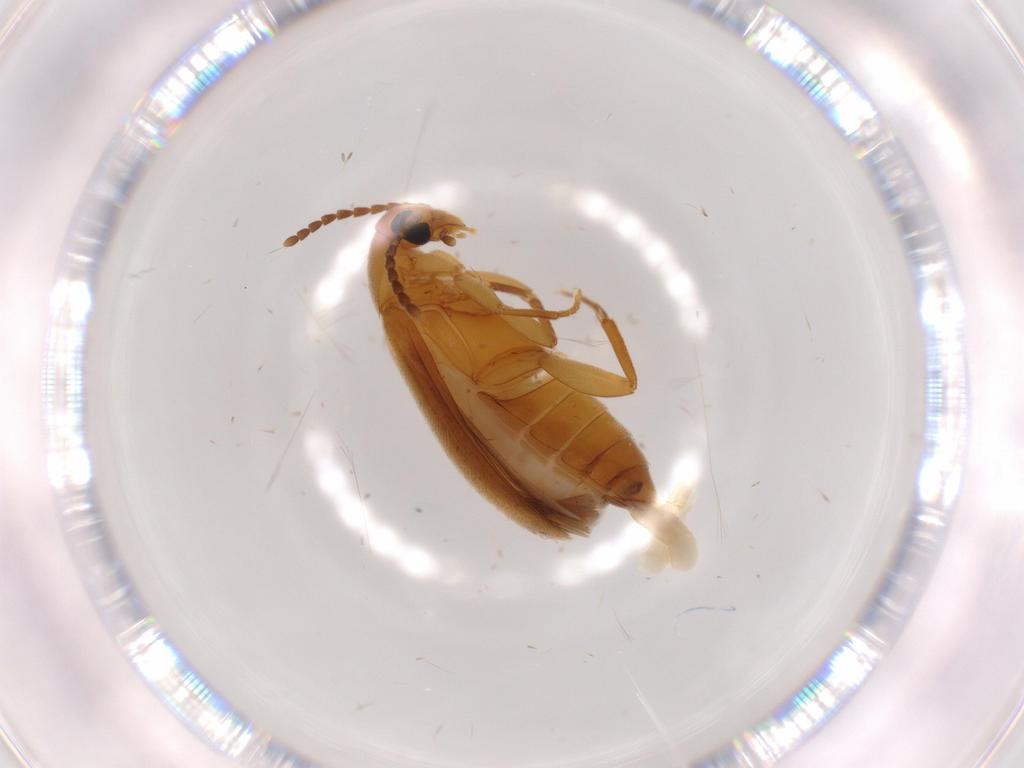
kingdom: Animalia
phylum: Arthropoda
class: Insecta
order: Coleoptera
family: Scraptiidae
